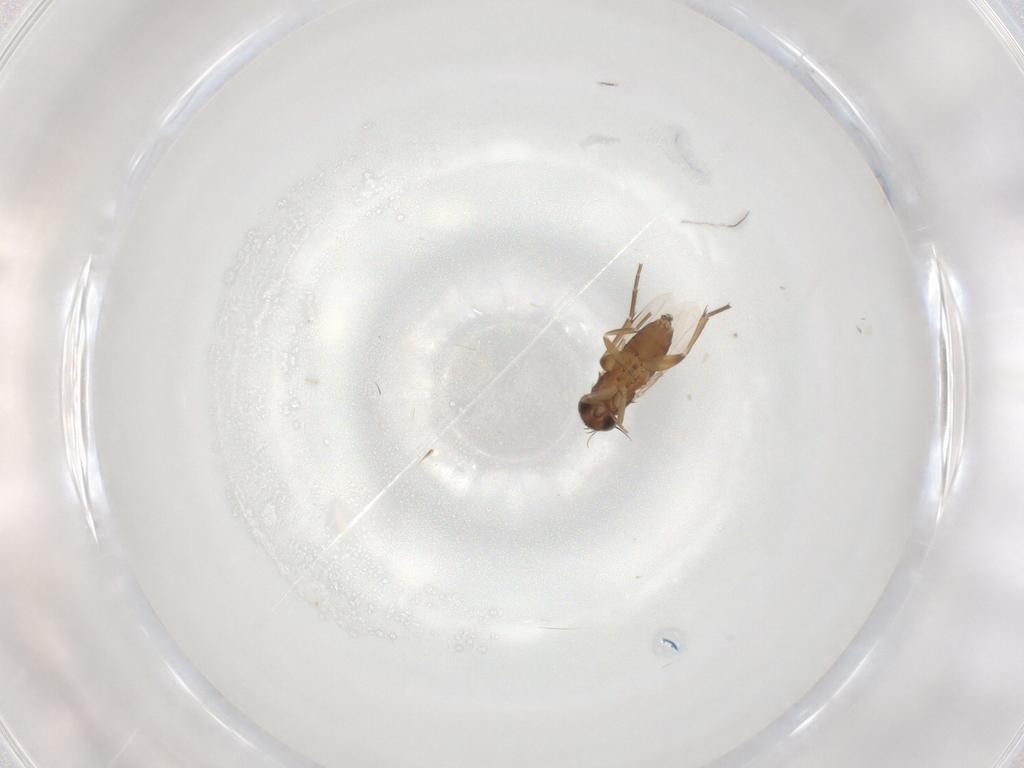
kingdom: Animalia
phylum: Arthropoda
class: Insecta
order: Diptera
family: Phoridae
